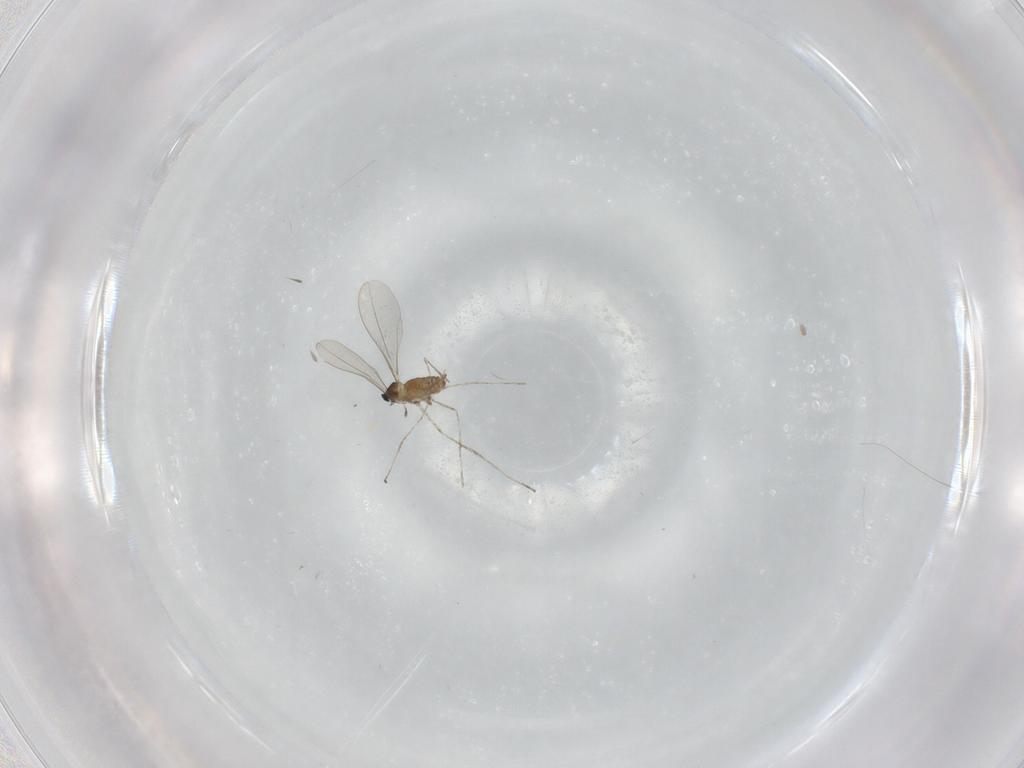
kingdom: Animalia
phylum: Arthropoda
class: Insecta
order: Diptera
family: Cecidomyiidae
